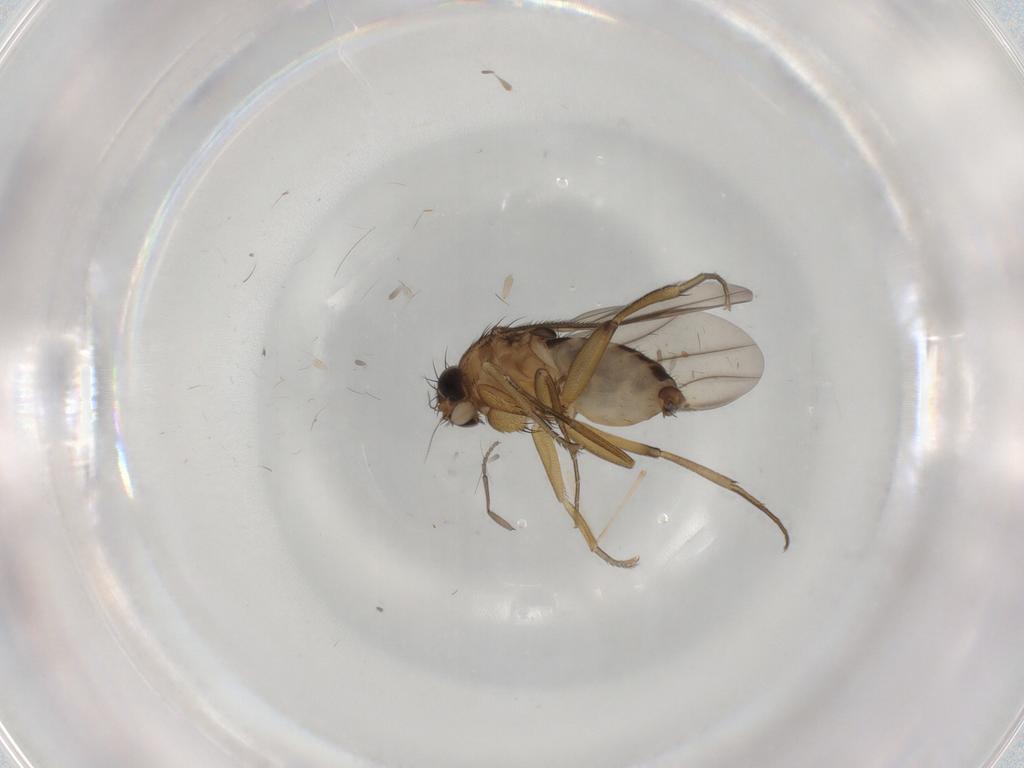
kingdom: Animalia
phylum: Arthropoda
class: Insecta
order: Diptera
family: Phoridae
